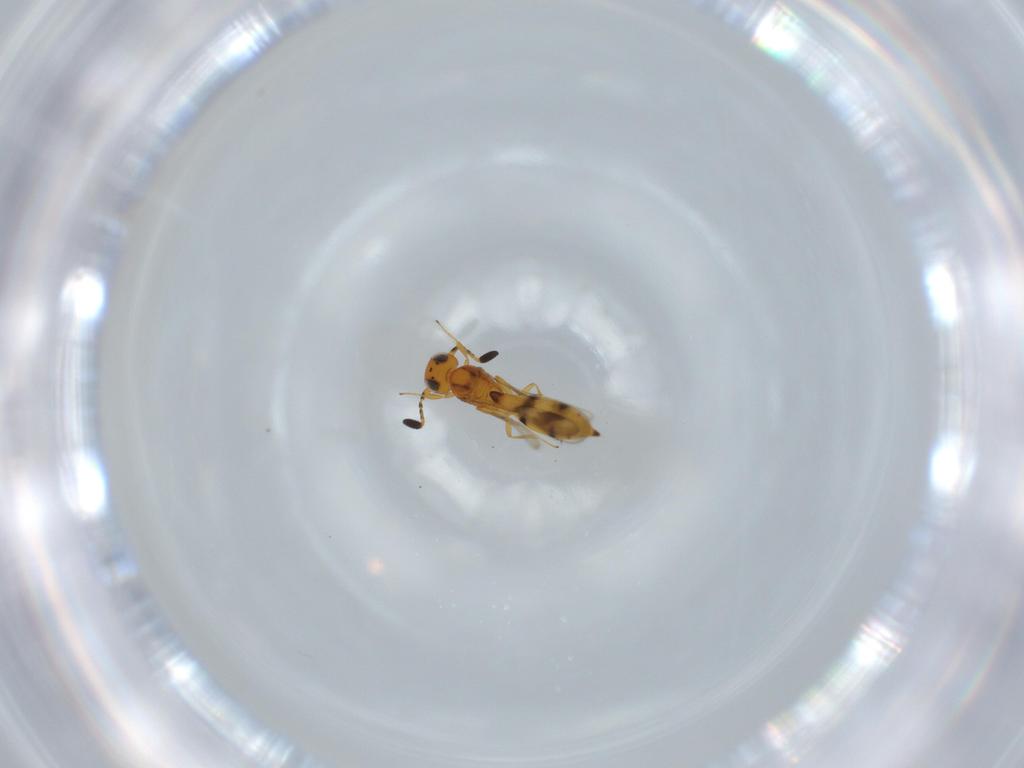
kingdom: Animalia
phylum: Arthropoda
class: Insecta
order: Hymenoptera
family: Scelionidae
